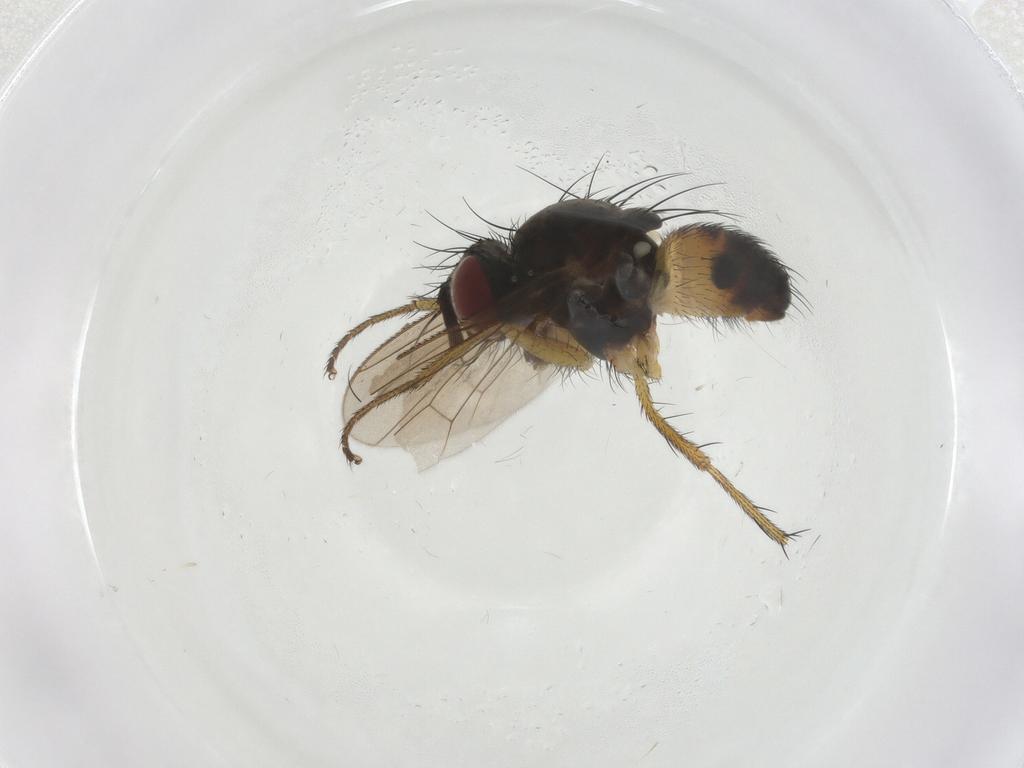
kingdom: Animalia
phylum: Arthropoda
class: Insecta
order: Diptera
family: Muscidae
